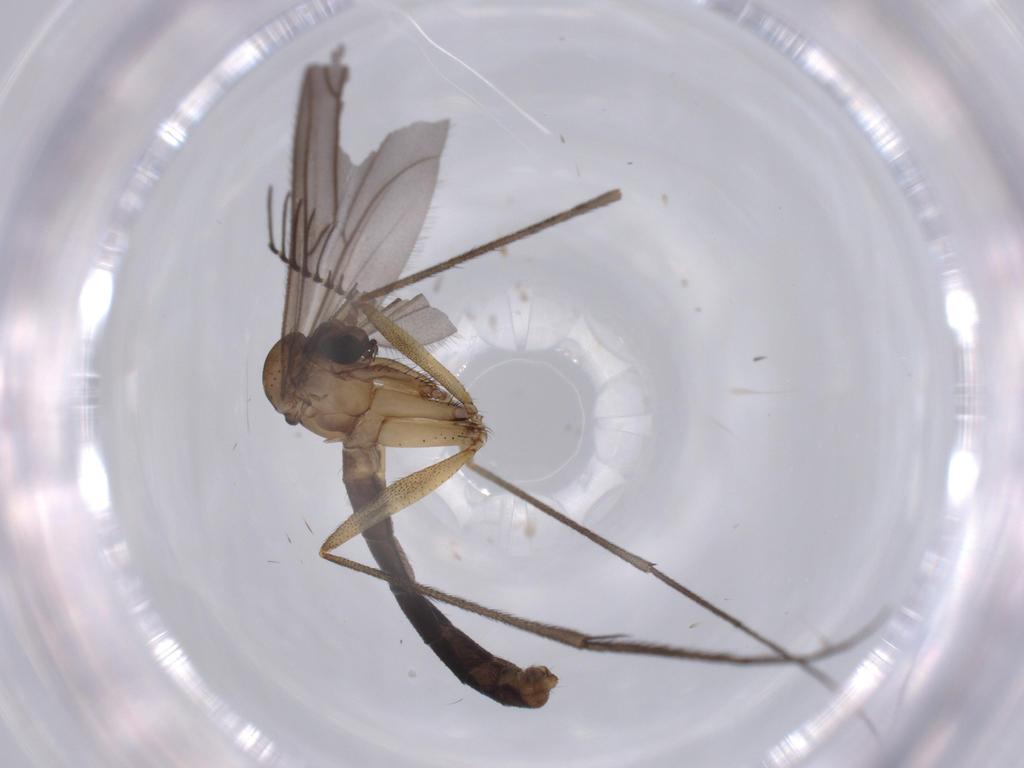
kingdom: Animalia
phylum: Arthropoda
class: Insecta
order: Diptera
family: Ditomyiidae
